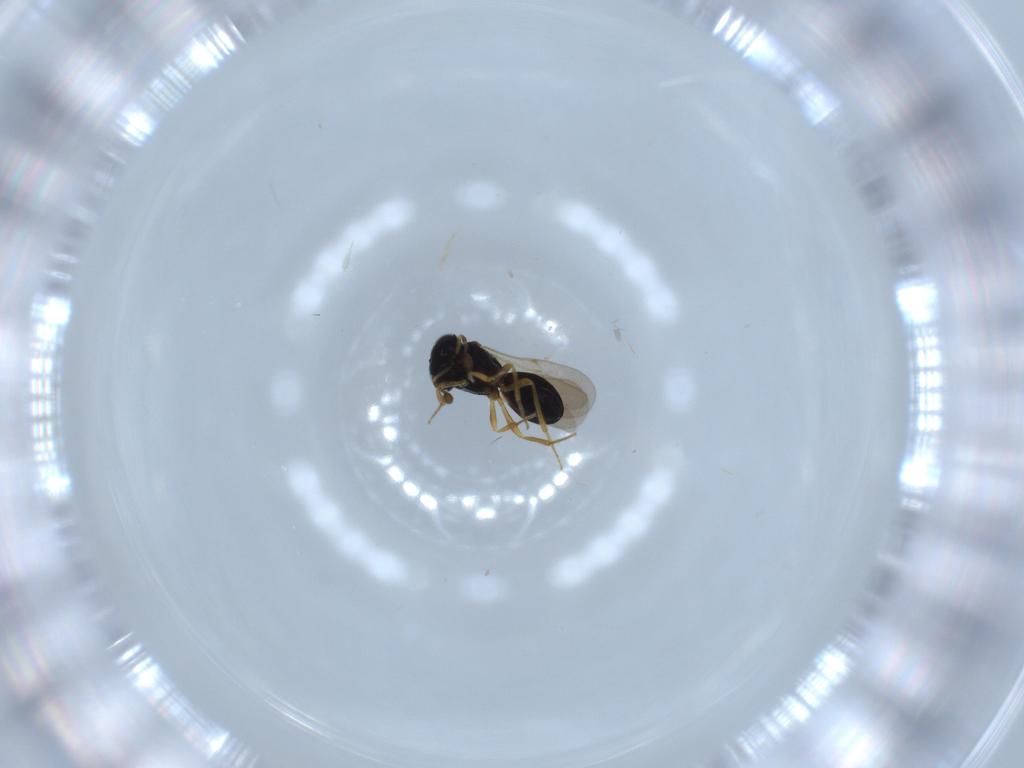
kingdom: Animalia
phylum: Arthropoda
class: Insecta
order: Hymenoptera
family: Scelionidae
